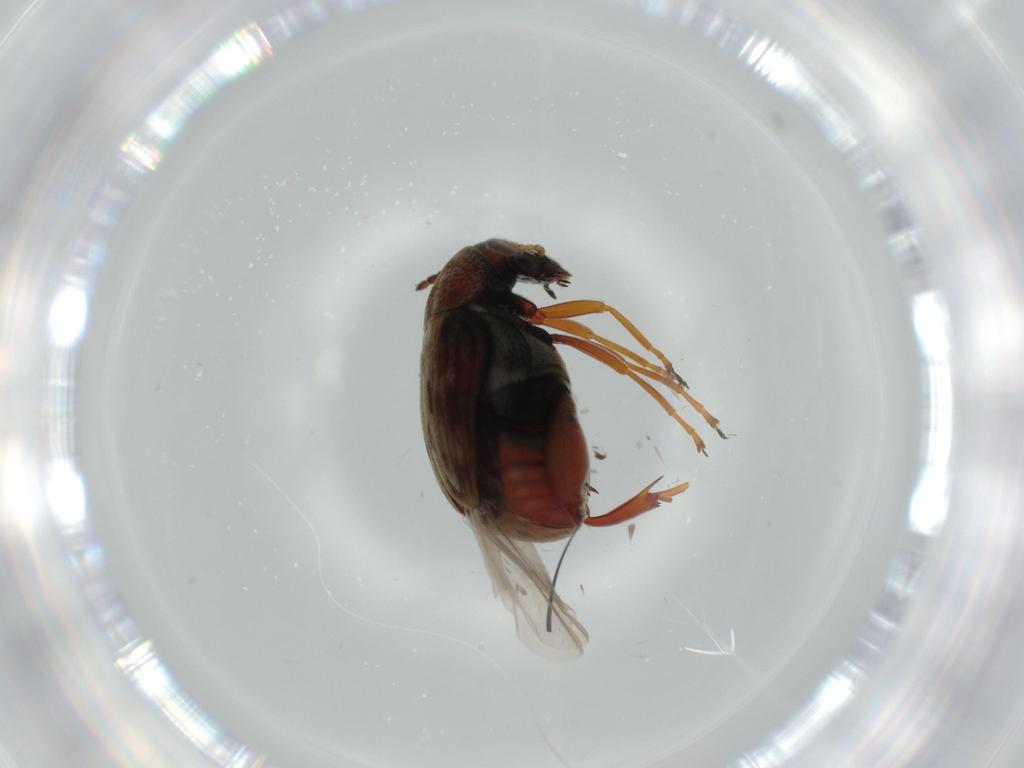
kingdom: Animalia
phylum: Arthropoda
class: Insecta
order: Coleoptera
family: Chrysomelidae
